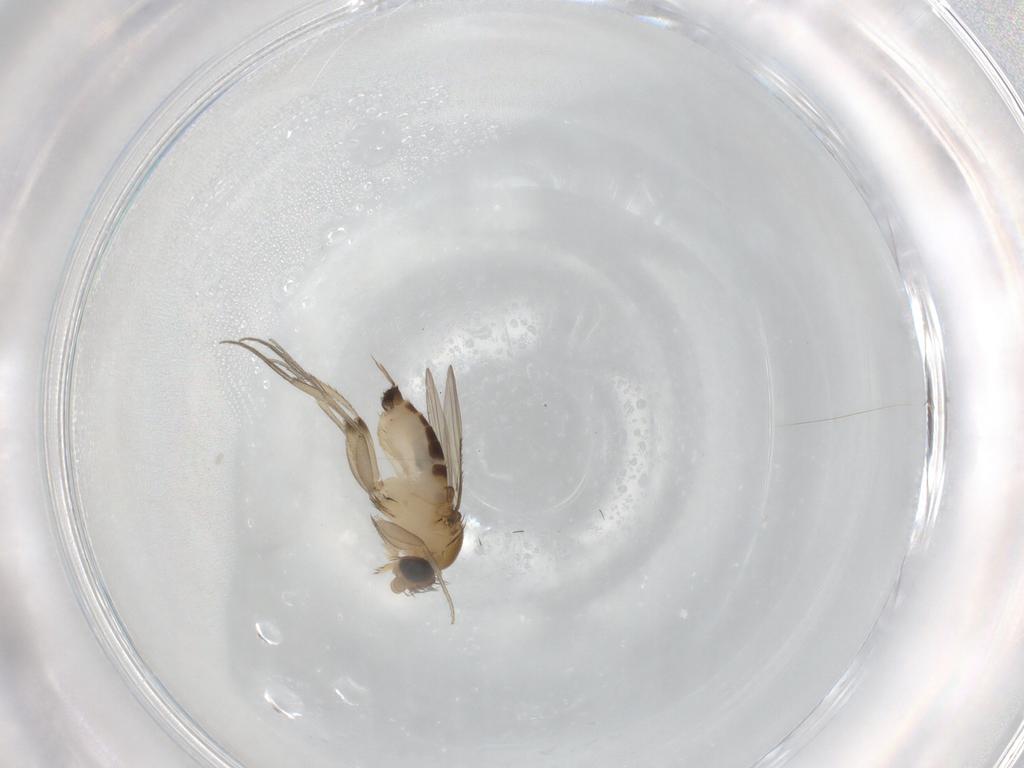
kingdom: Animalia
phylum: Arthropoda
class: Insecta
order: Diptera
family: Phoridae
